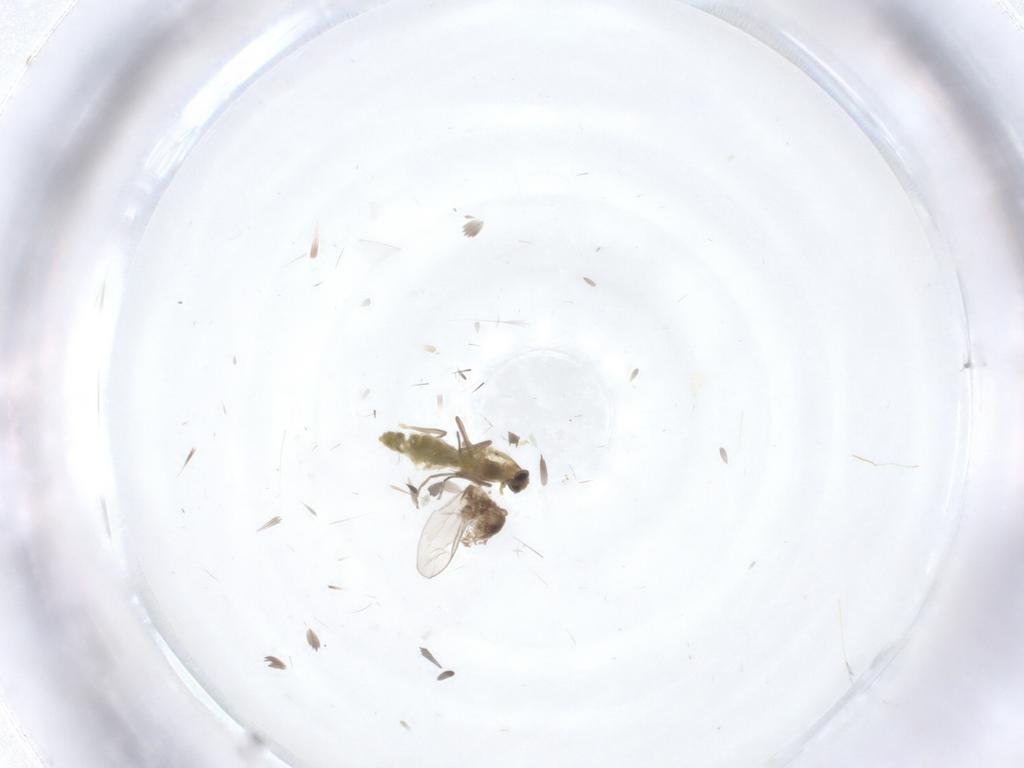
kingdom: Animalia
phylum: Arthropoda
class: Insecta
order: Diptera
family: Chironomidae
